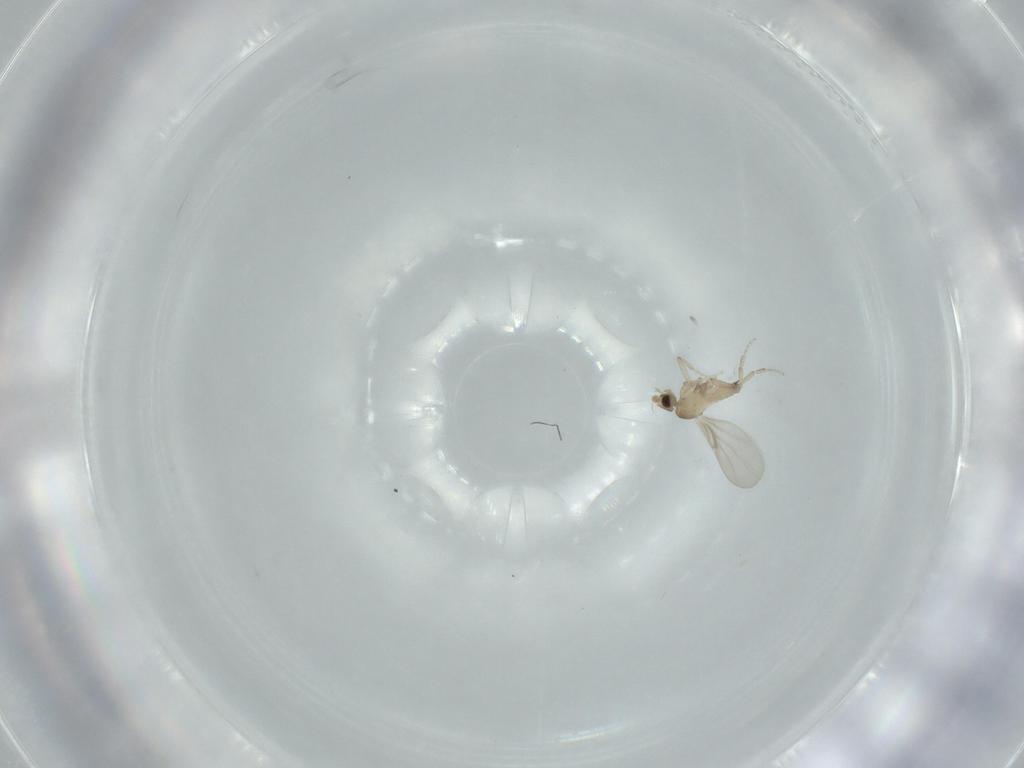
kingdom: Animalia
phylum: Arthropoda
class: Insecta
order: Diptera
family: Sciaridae
